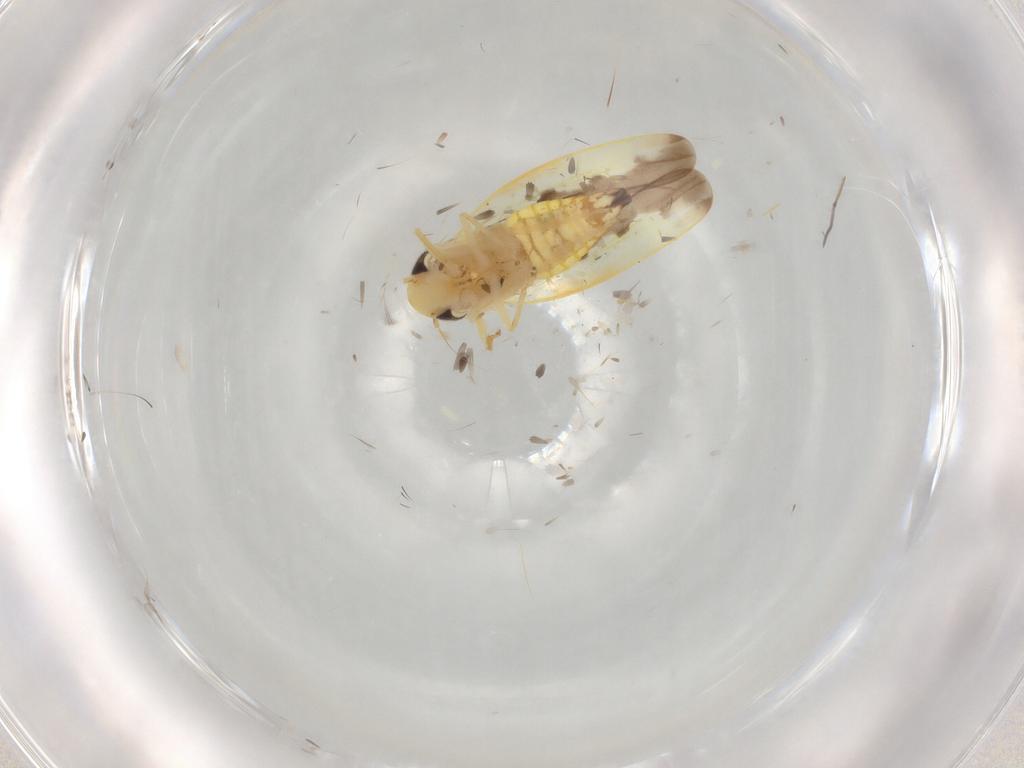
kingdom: Animalia
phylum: Arthropoda
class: Insecta
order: Hemiptera
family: Cicadellidae
